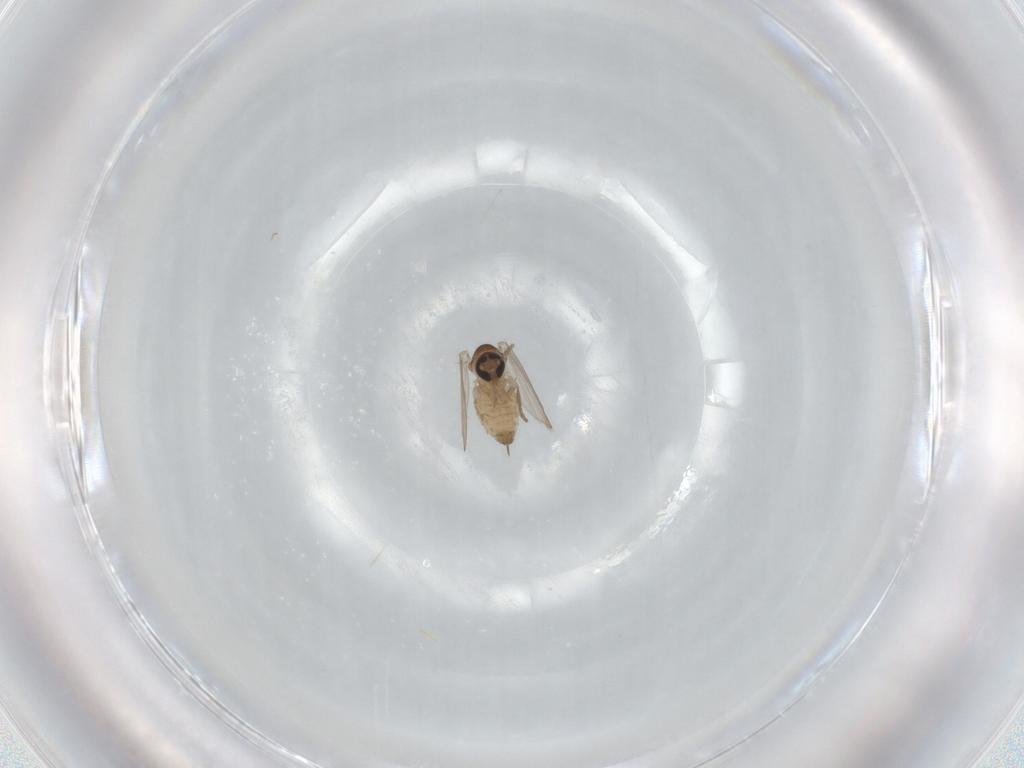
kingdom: Animalia
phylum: Arthropoda
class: Insecta
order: Diptera
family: Psychodidae
